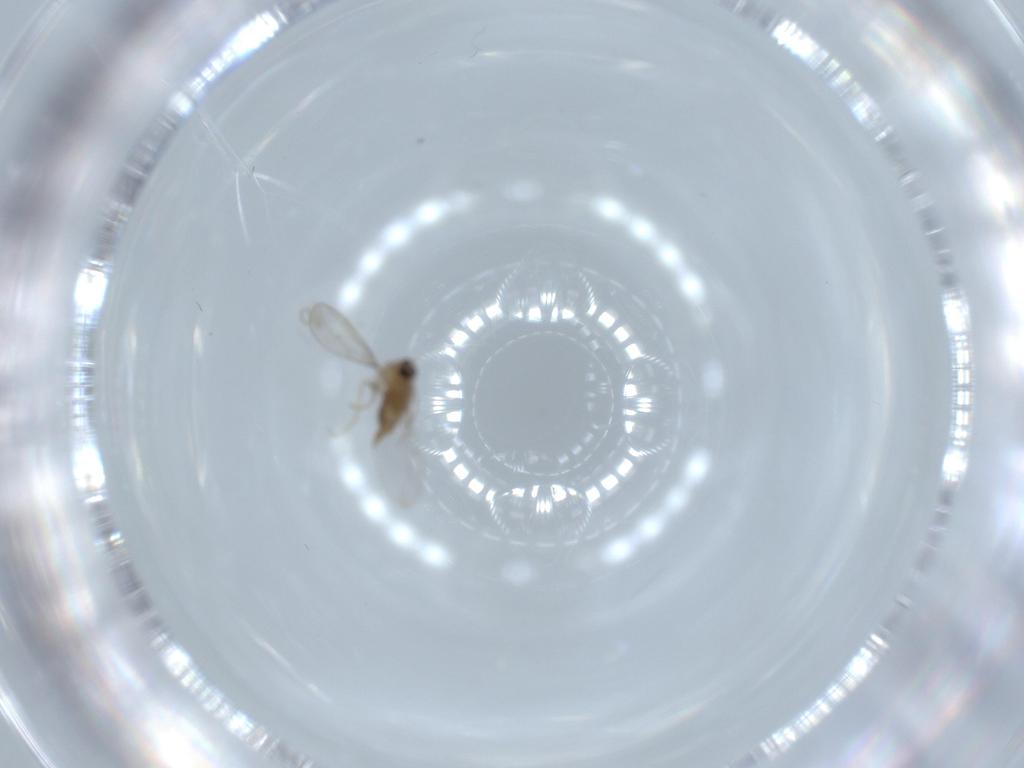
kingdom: Animalia
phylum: Arthropoda
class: Insecta
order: Diptera
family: Cecidomyiidae
